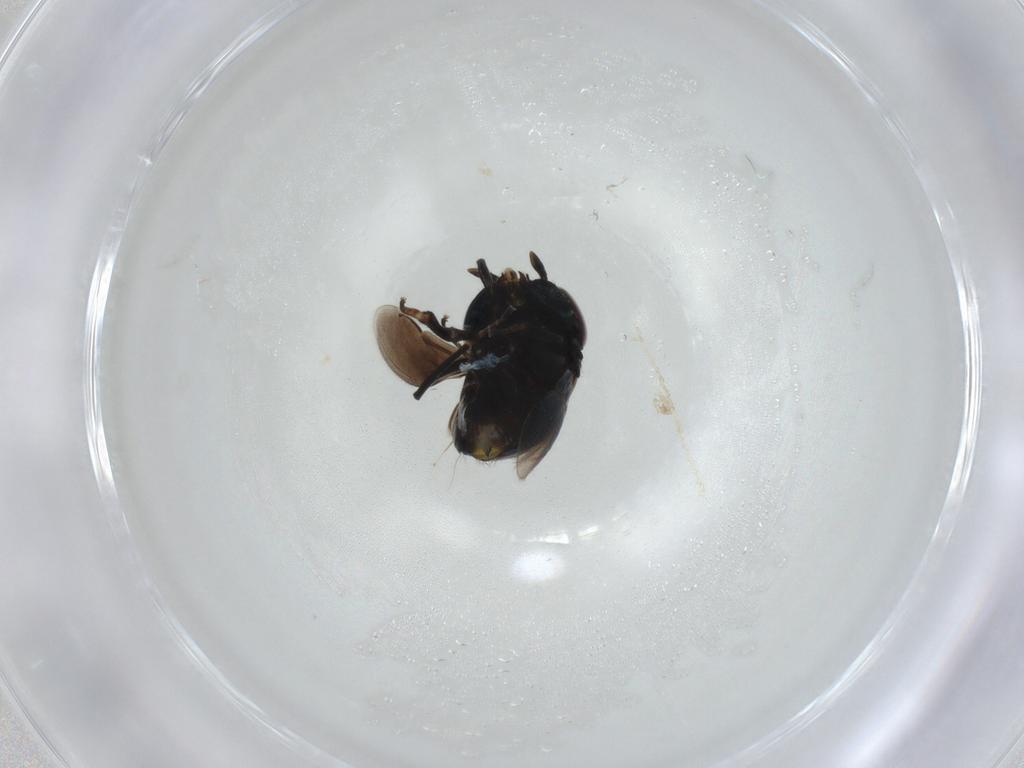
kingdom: Animalia
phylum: Arthropoda
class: Insecta
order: Hymenoptera
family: Encyrtidae
